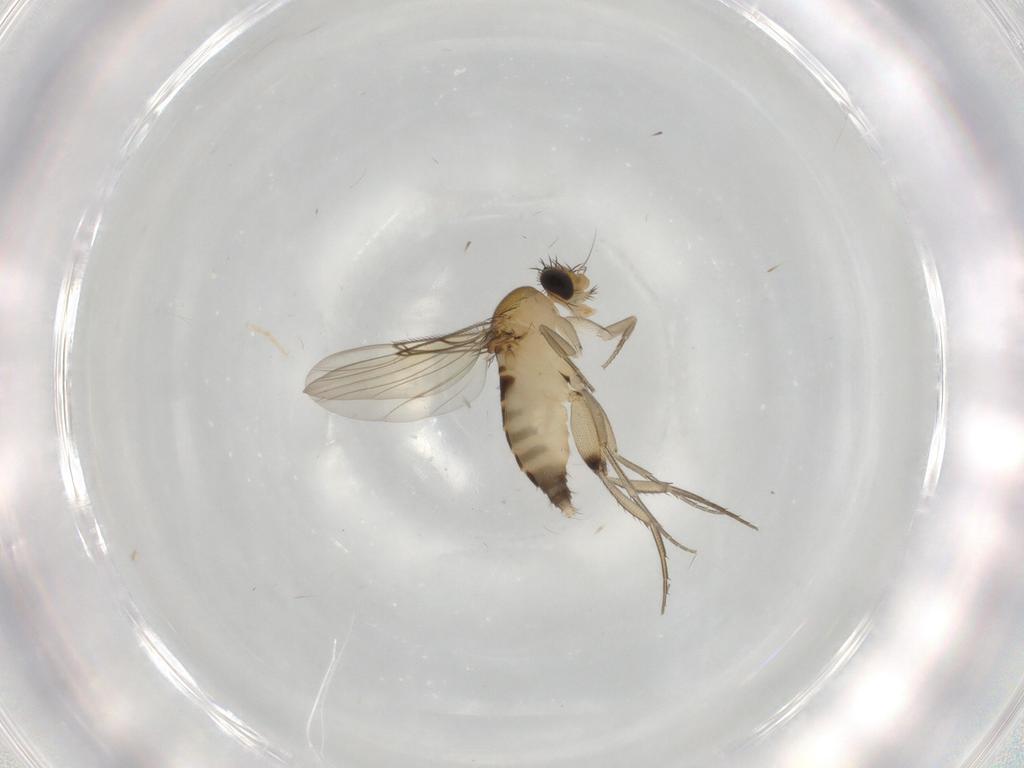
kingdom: Animalia
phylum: Arthropoda
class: Insecta
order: Diptera
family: Phoridae
